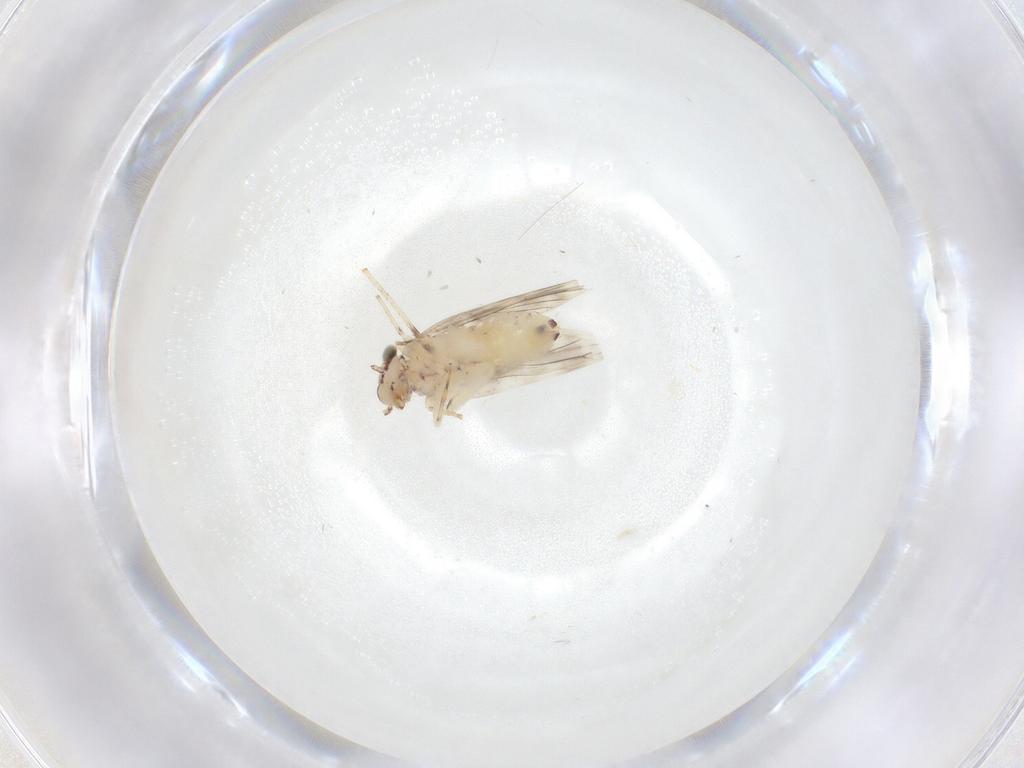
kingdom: Animalia
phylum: Arthropoda
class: Insecta
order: Psocodea
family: Lepidopsocidae
